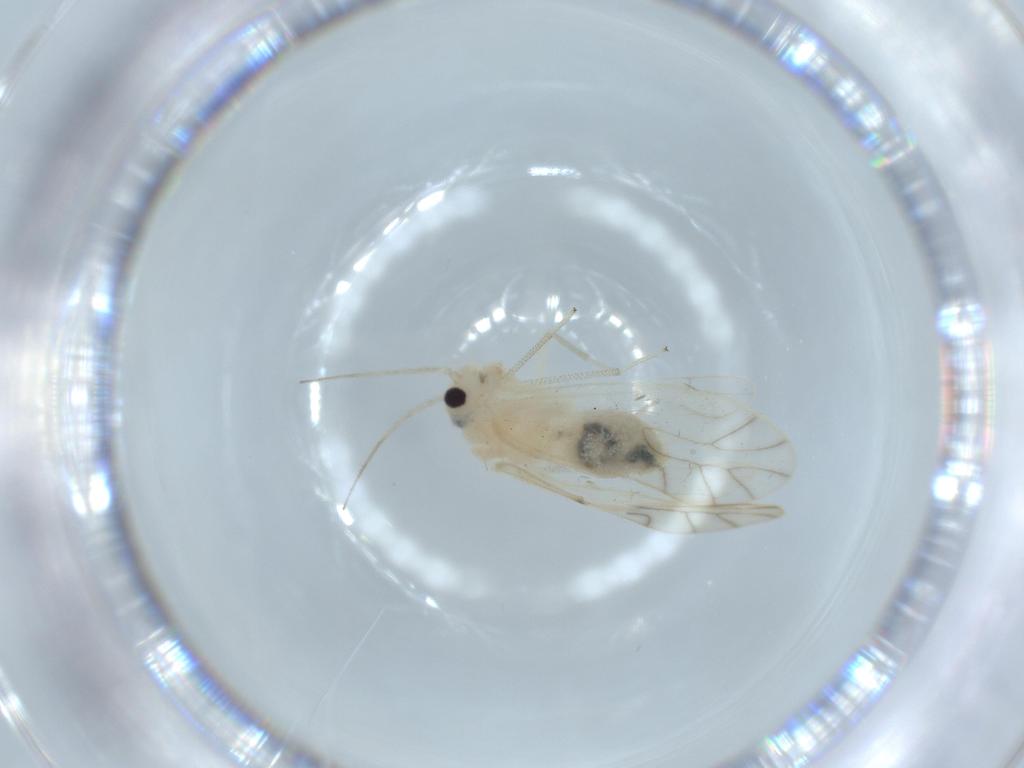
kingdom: Animalia
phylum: Arthropoda
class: Insecta
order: Psocodea
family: Caeciliusidae
